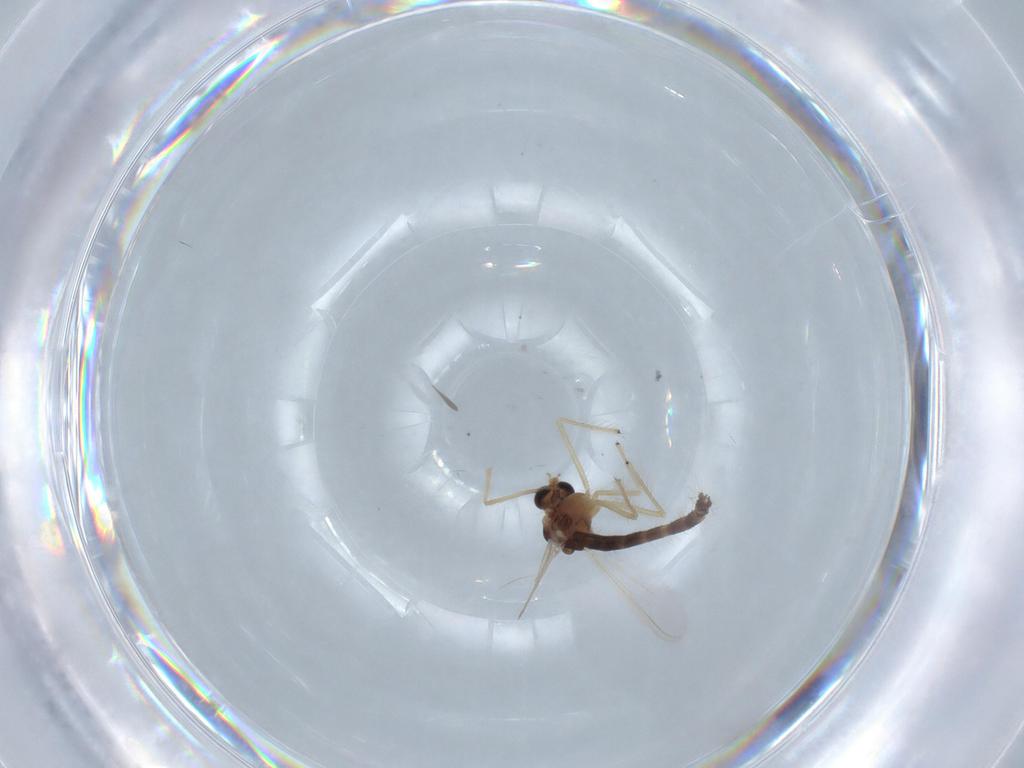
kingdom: Animalia
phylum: Arthropoda
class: Insecta
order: Diptera
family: Chironomidae
